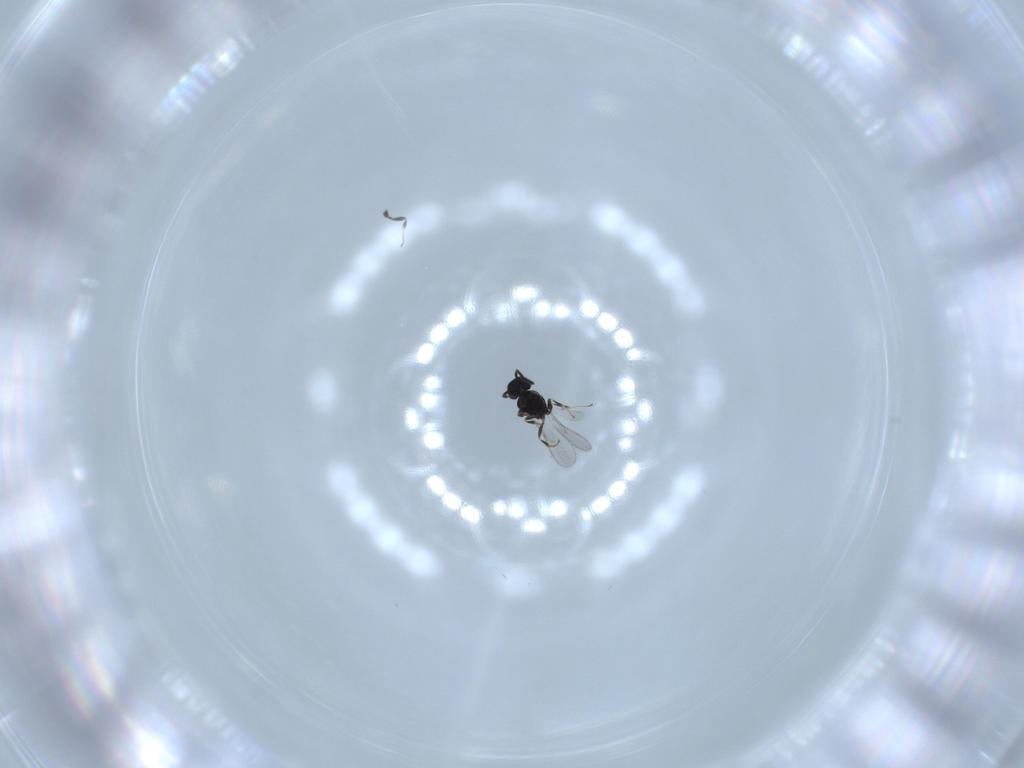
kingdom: Animalia
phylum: Arthropoda
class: Insecta
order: Hymenoptera
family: Scelionidae
